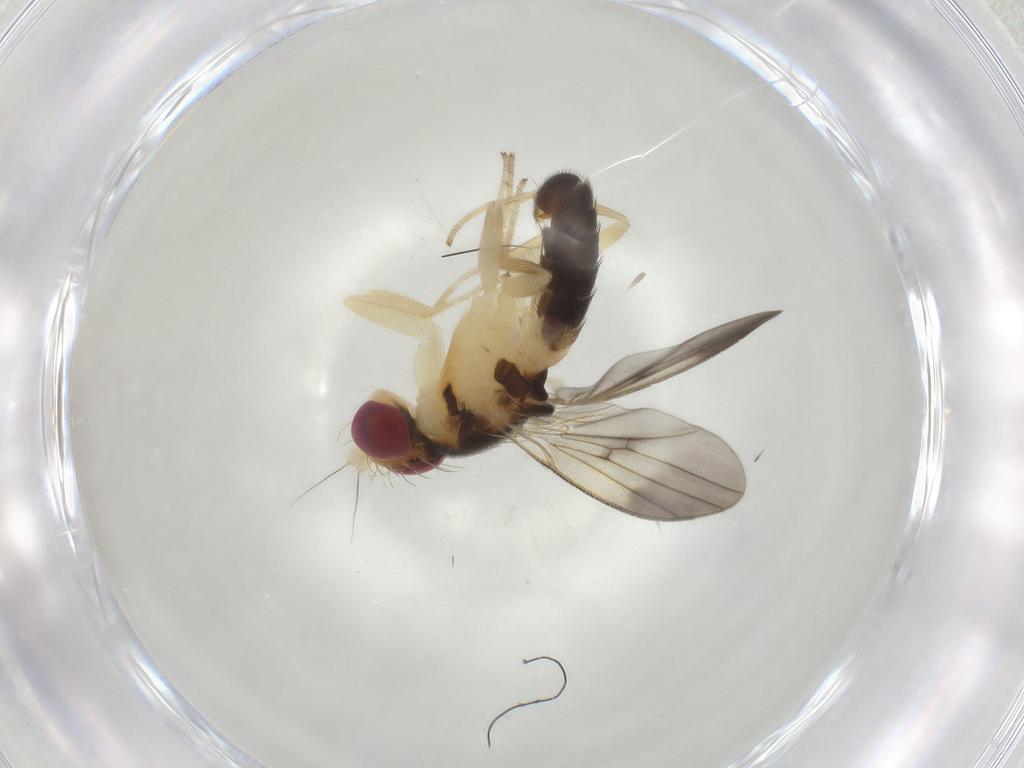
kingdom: Animalia
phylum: Arthropoda
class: Insecta
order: Diptera
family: Clusiidae
